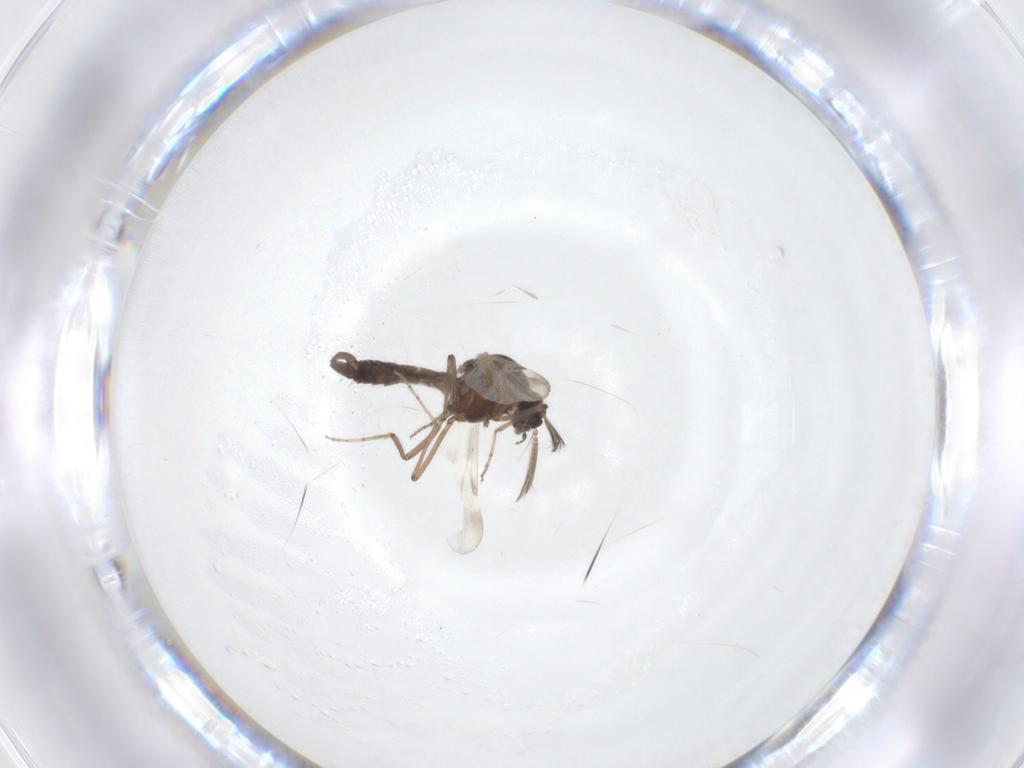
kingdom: Animalia
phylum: Arthropoda
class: Insecta
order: Diptera
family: Ceratopogonidae
